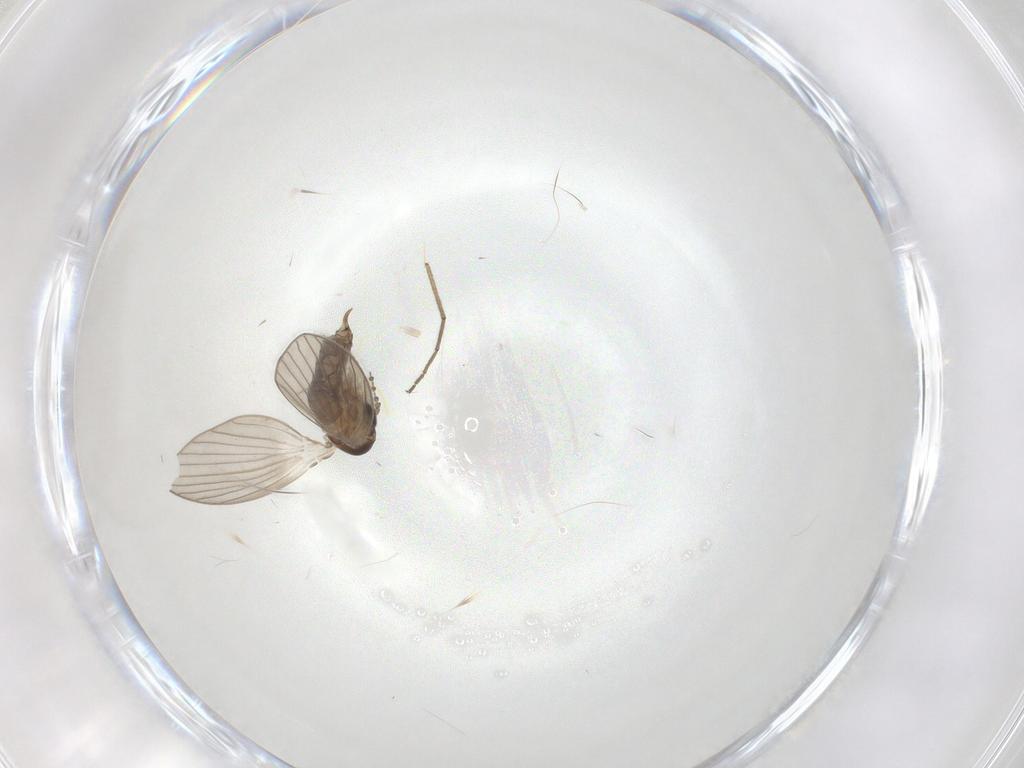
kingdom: Animalia
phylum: Arthropoda
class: Insecta
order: Diptera
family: Psychodidae
